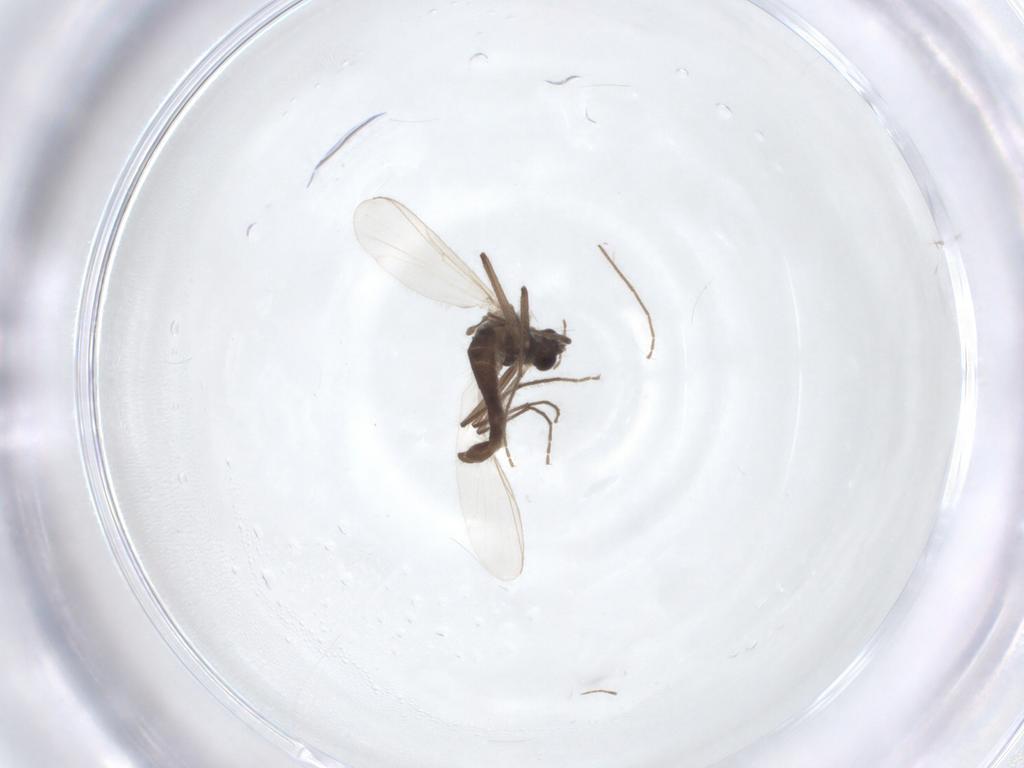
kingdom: Animalia
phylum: Arthropoda
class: Insecta
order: Diptera
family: Chironomidae
